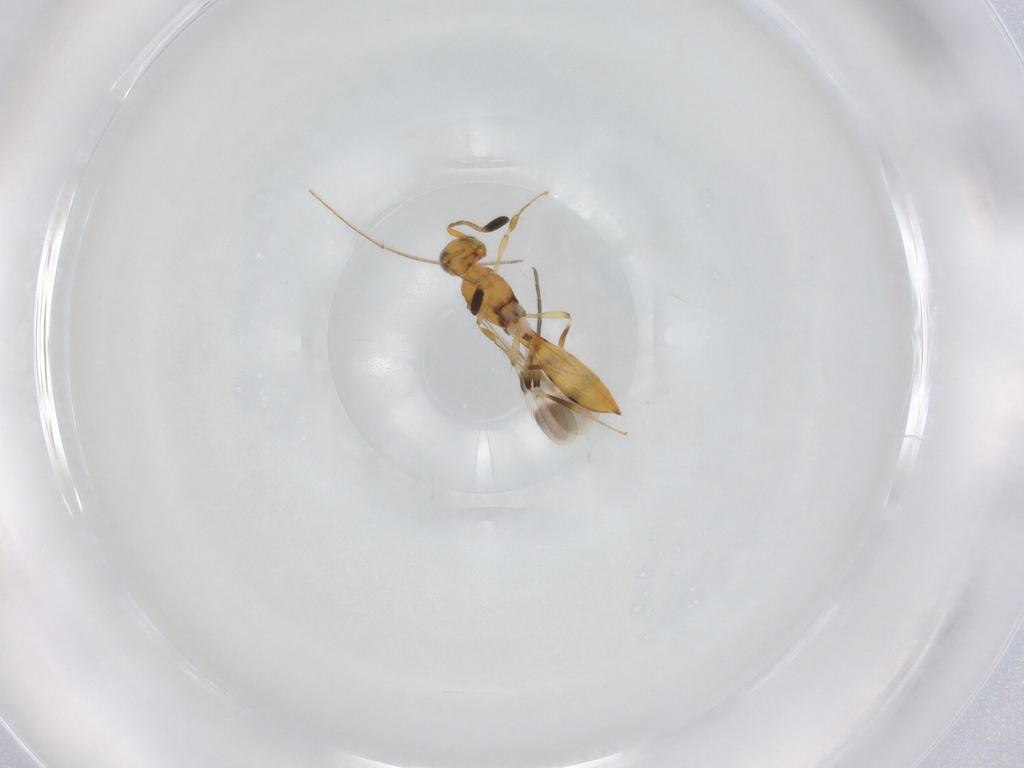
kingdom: Animalia
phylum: Arthropoda
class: Insecta
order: Hymenoptera
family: Scelionidae
